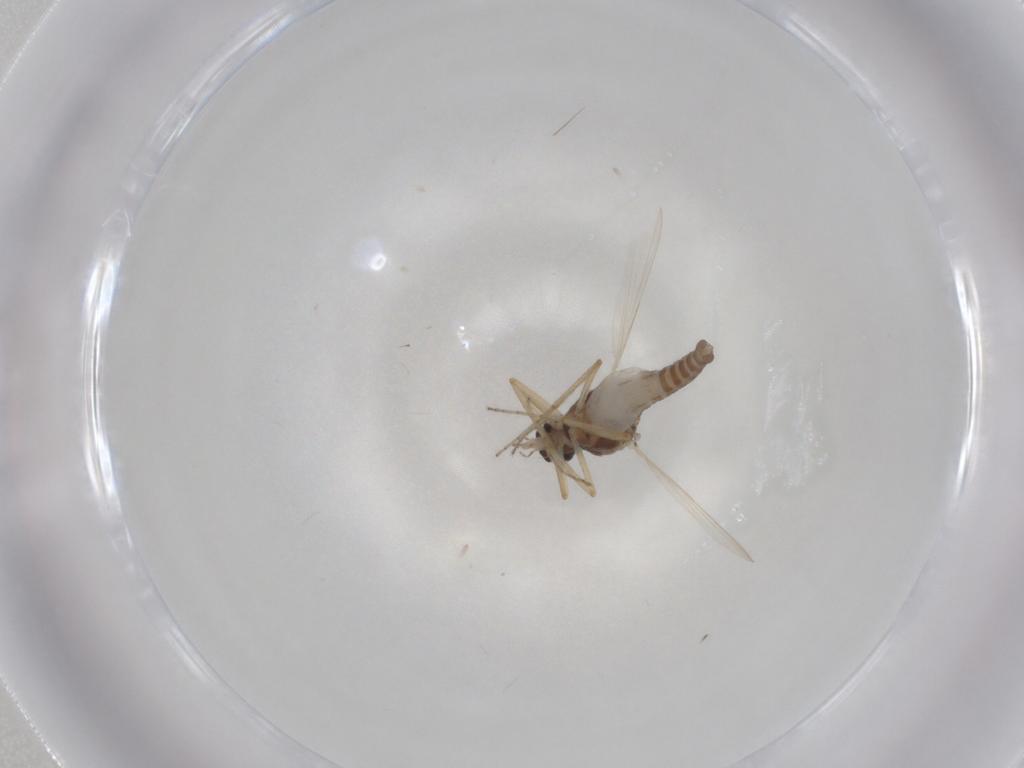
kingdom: Animalia
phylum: Arthropoda
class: Insecta
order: Diptera
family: Ceratopogonidae
